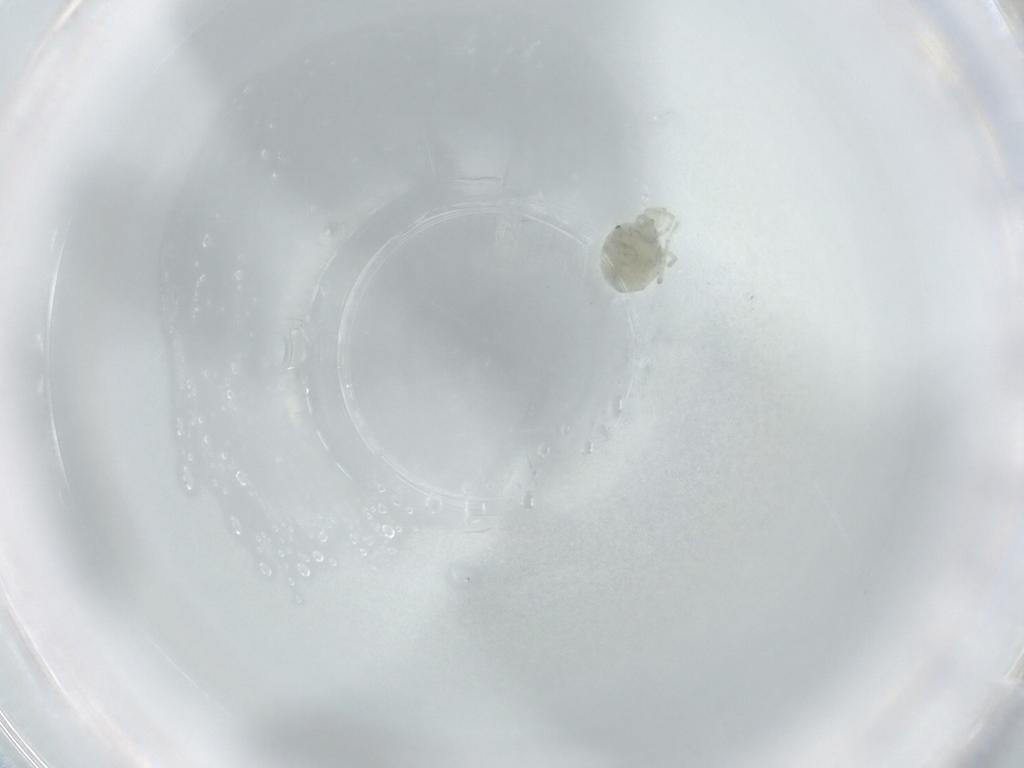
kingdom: Animalia
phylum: Arthropoda
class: Arachnida
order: Trombidiformes
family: Sperchontidae
